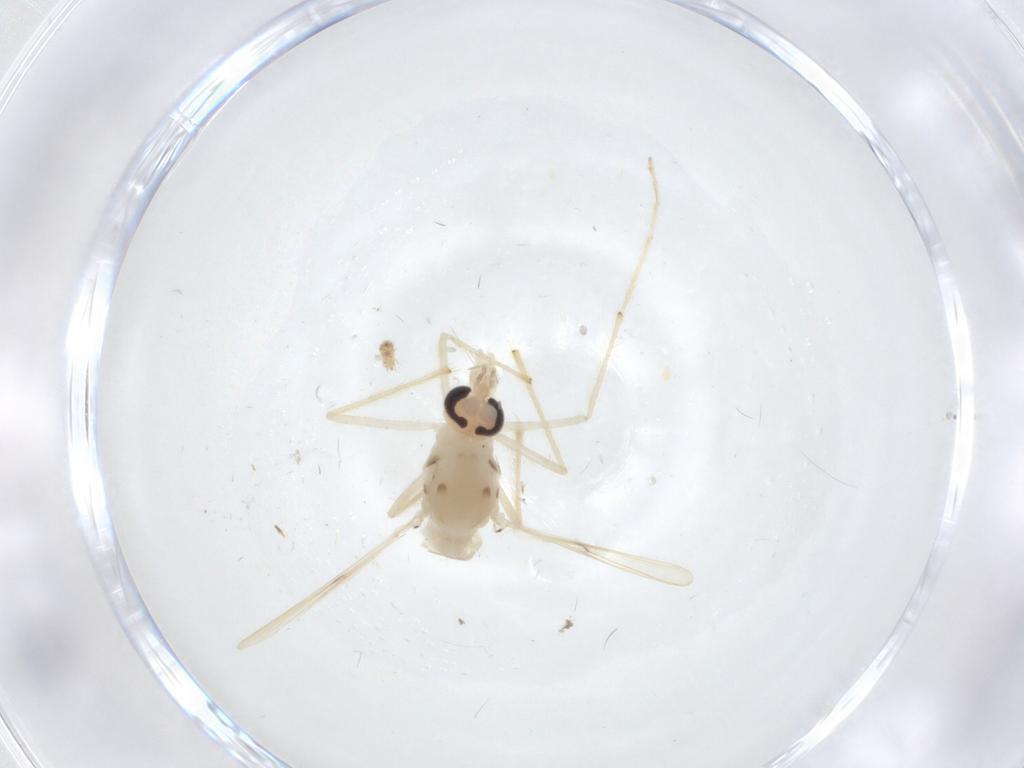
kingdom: Animalia
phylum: Arthropoda
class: Insecta
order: Diptera
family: Chironomidae
